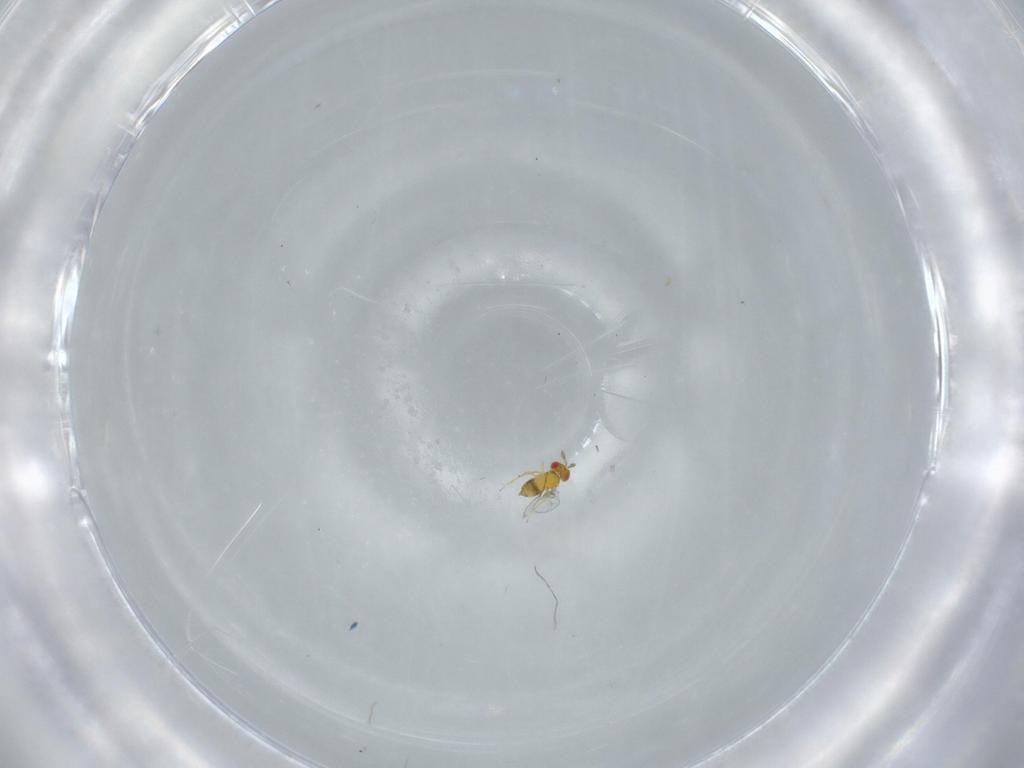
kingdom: Animalia
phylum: Arthropoda
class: Insecta
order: Hymenoptera
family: Trichogrammatidae
